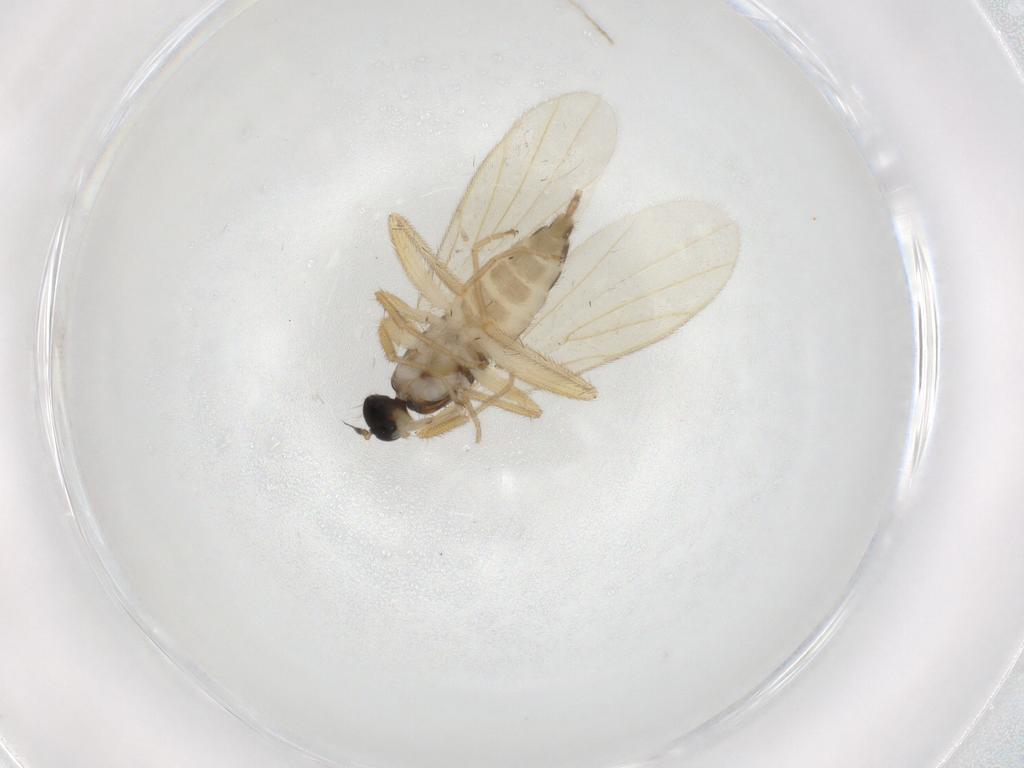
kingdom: Animalia
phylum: Arthropoda
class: Insecta
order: Diptera
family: Hybotidae
